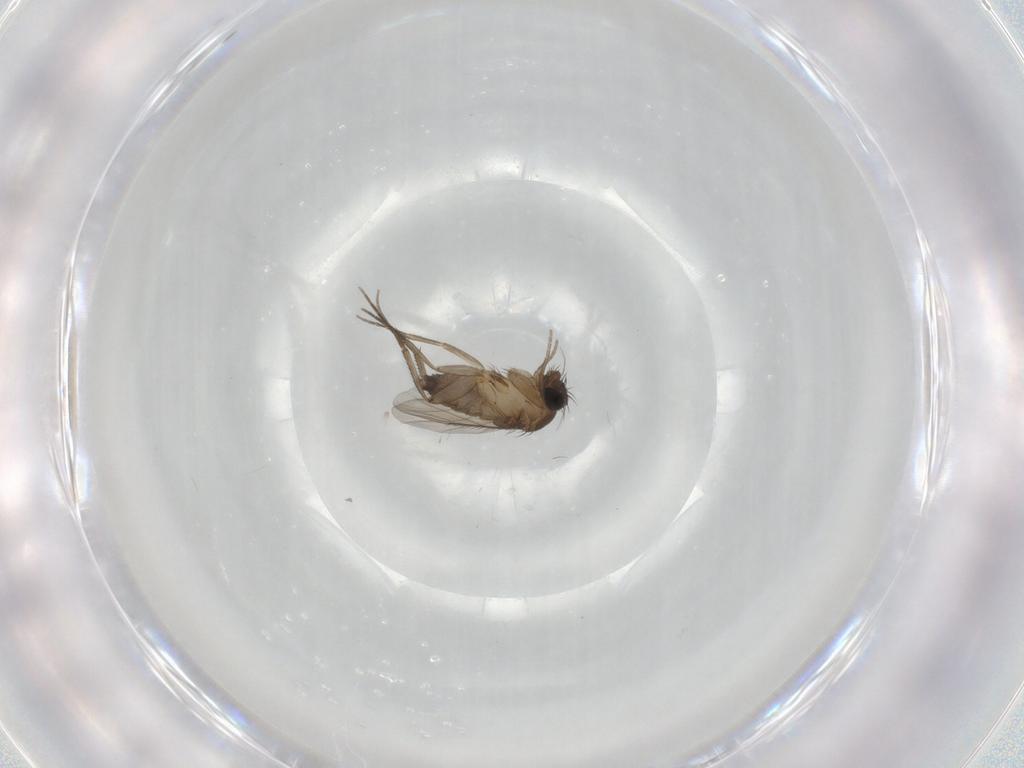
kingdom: Animalia
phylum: Arthropoda
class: Insecta
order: Diptera
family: Phoridae
